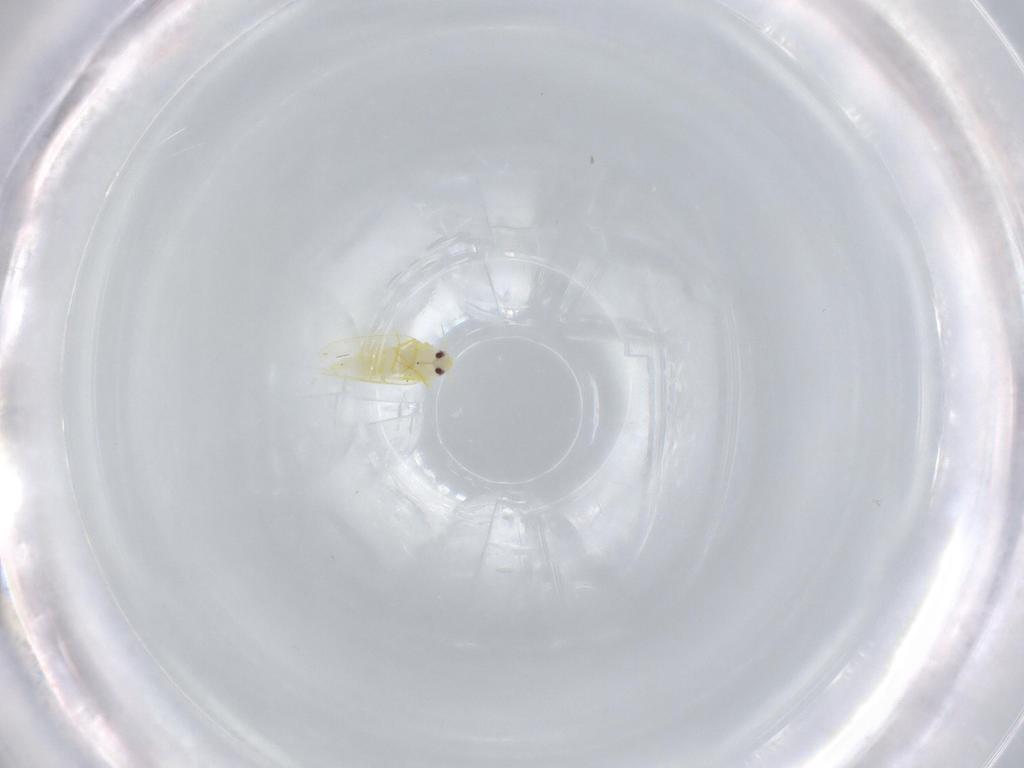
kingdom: Animalia
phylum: Arthropoda
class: Insecta
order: Hemiptera
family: Aleyrodidae
